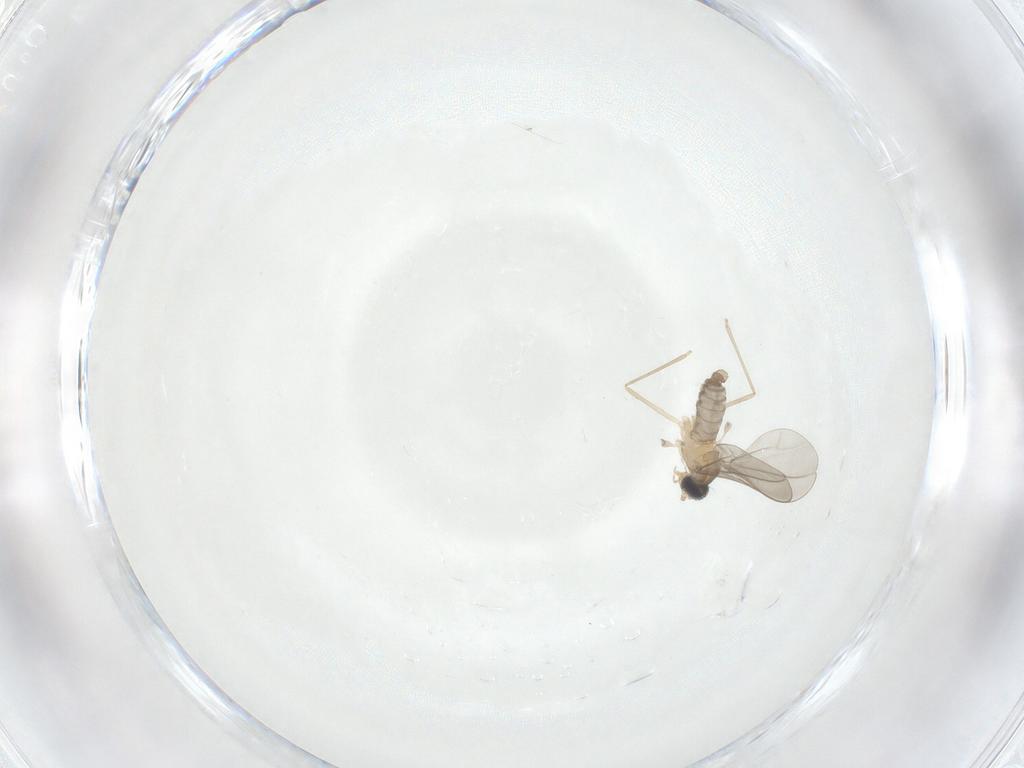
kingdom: Animalia
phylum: Arthropoda
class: Insecta
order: Diptera
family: Cecidomyiidae
